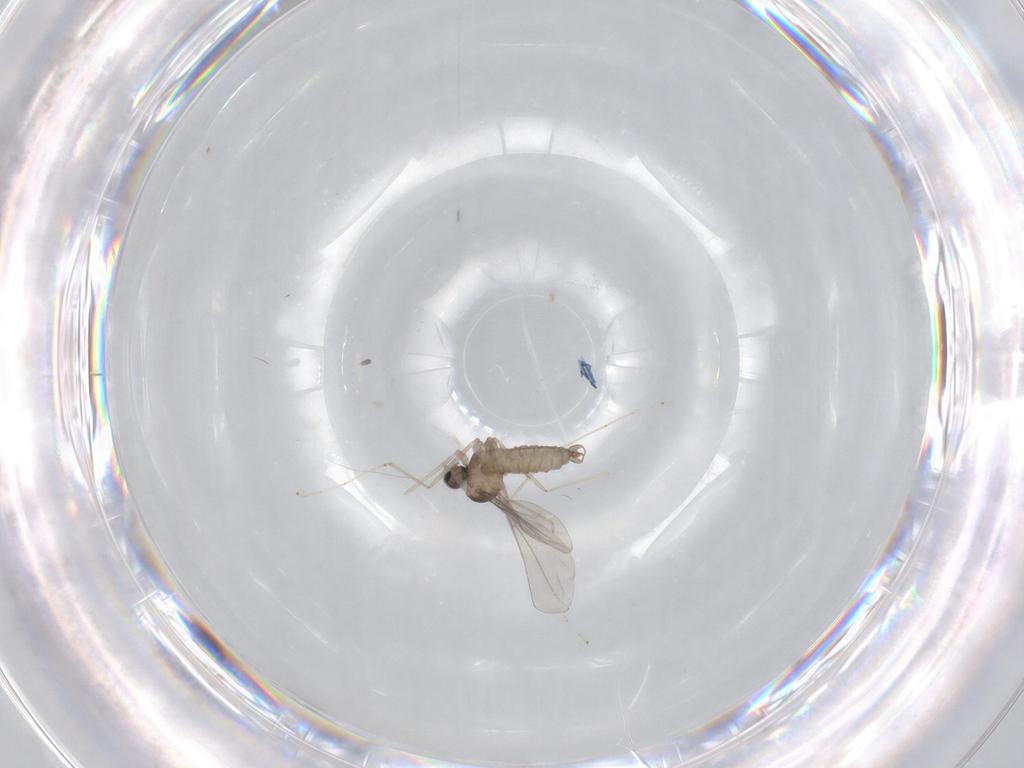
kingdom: Animalia
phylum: Arthropoda
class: Insecta
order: Diptera
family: Cecidomyiidae
